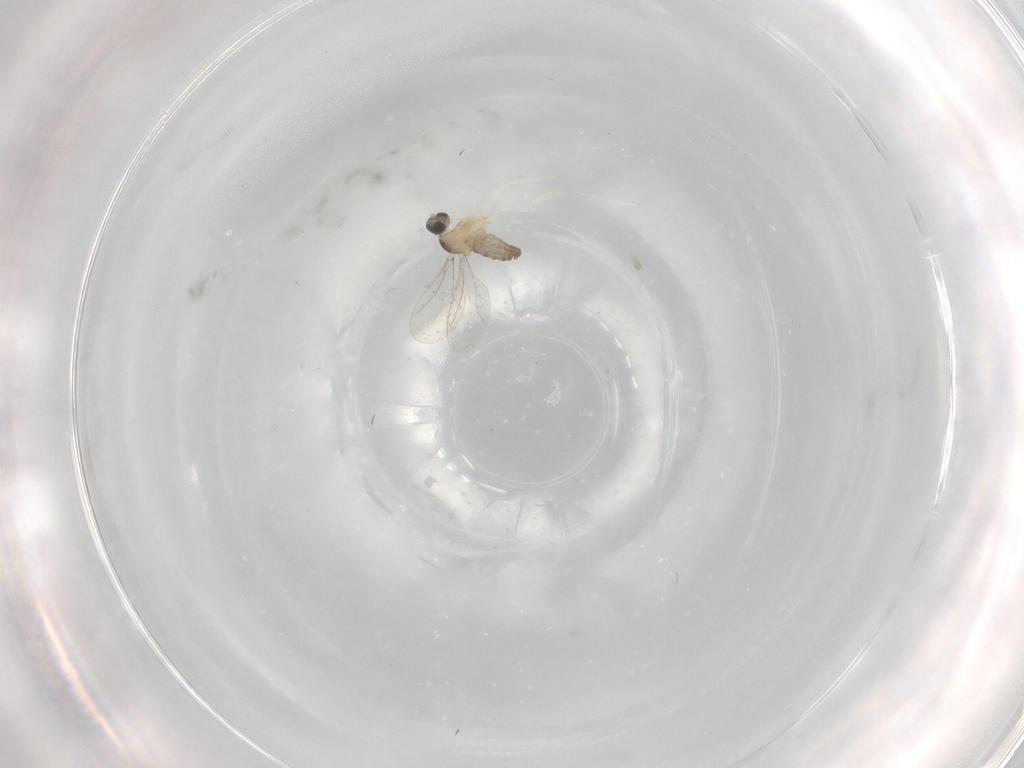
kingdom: Animalia
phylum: Arthropoda
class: Insecta
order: Diptera
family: Cecidomyiidae
